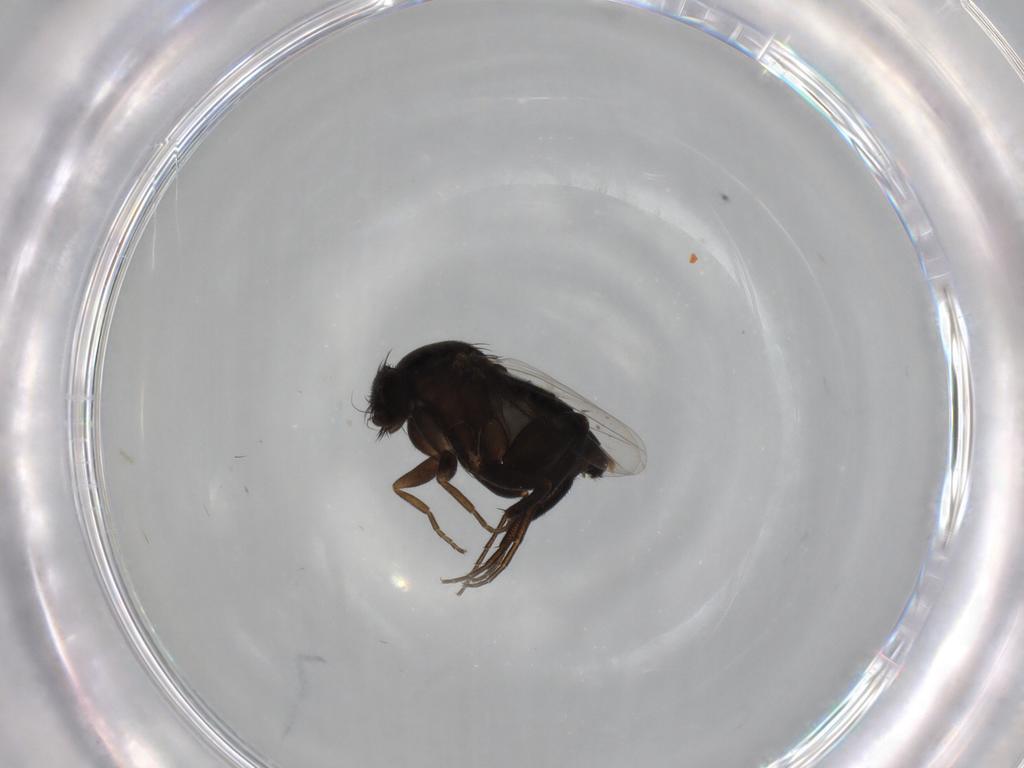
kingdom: Animalia
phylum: Arthropoda
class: Insecta
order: Diptera
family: Phoridae
